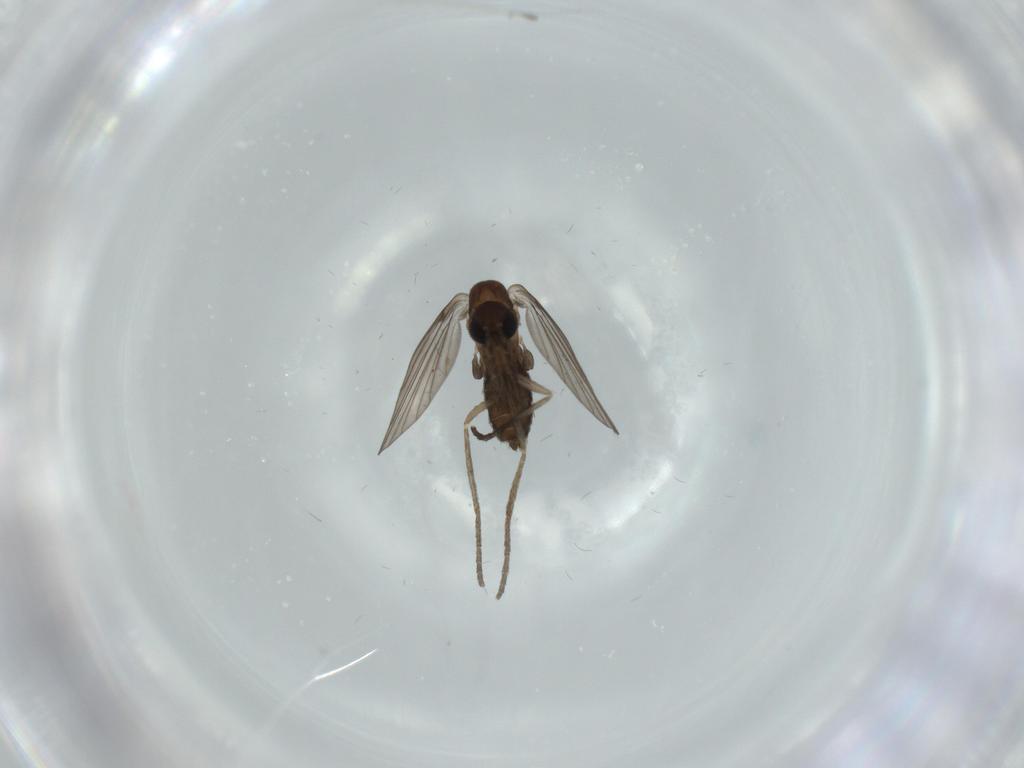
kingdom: Animalia
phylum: Arthropoda
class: Insecta
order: Diptera
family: Psychodidae
